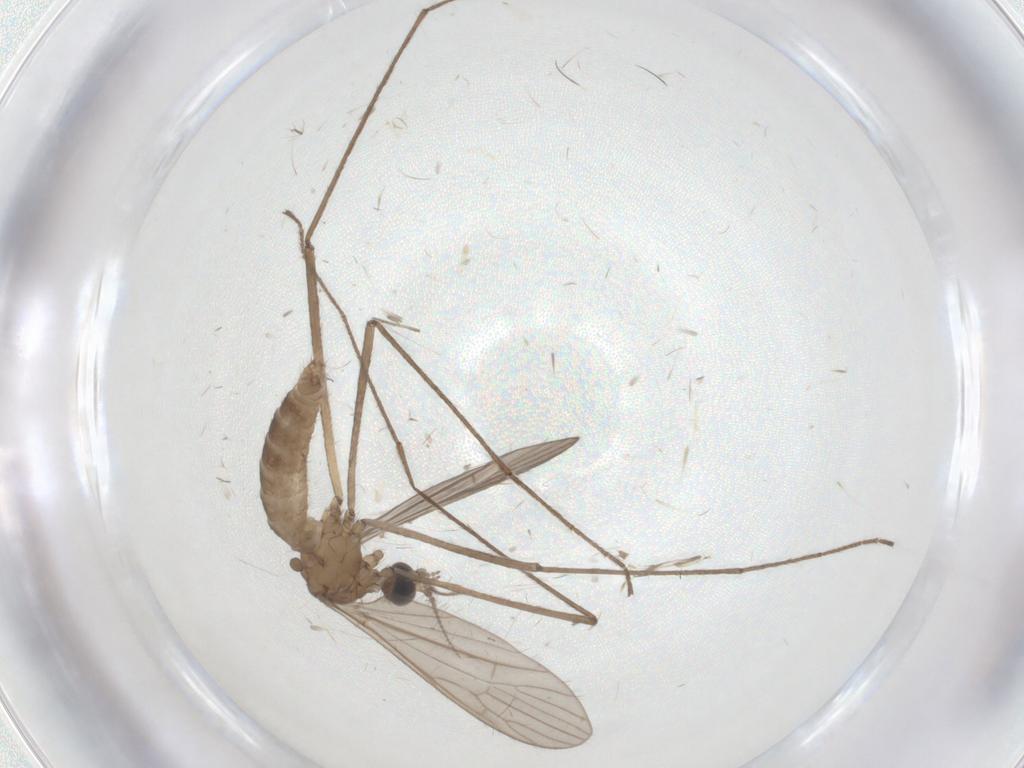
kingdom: Animalia
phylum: Arthropoda
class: Insecta
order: Diptera
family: Limoniidae
